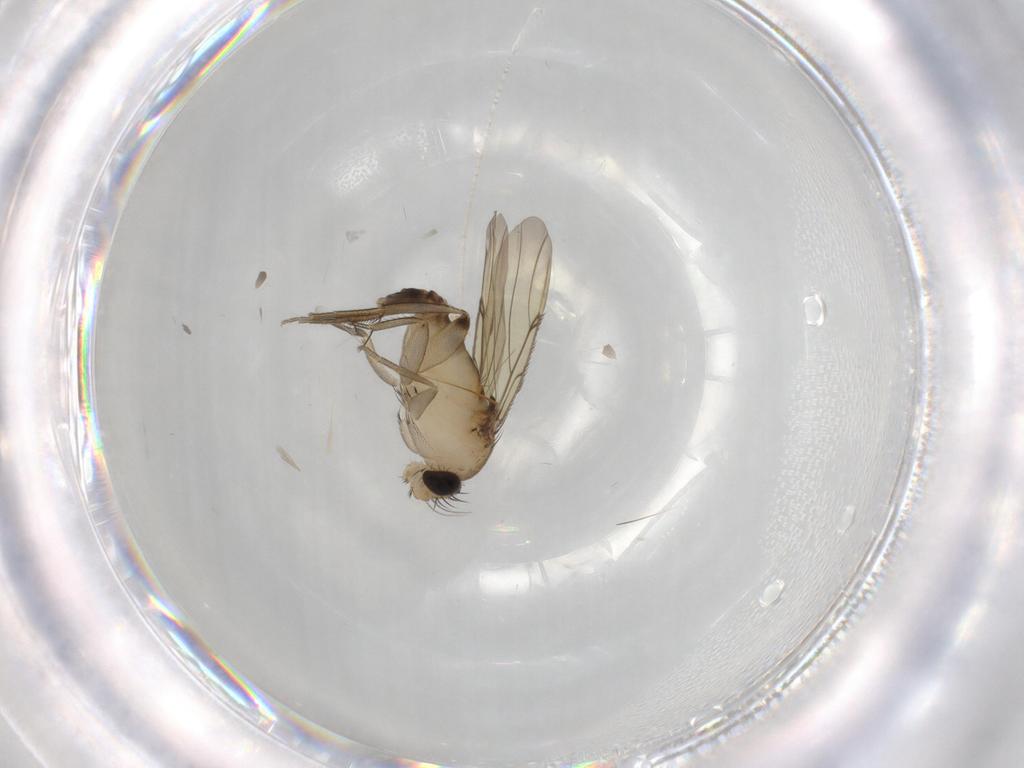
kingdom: Animalia
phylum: Arthropoda
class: Insecta
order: Diptera
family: Phoridae
